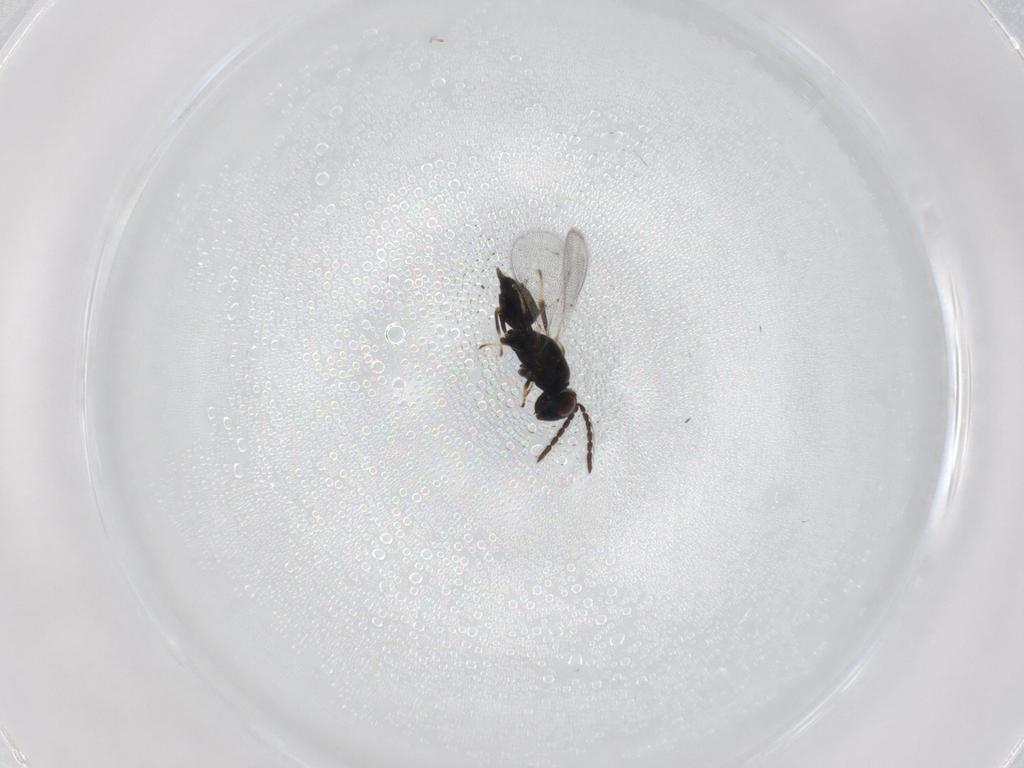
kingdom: Animalia
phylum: Arthropoda
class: Insecta
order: Hymenoptera
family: Eulophidae
